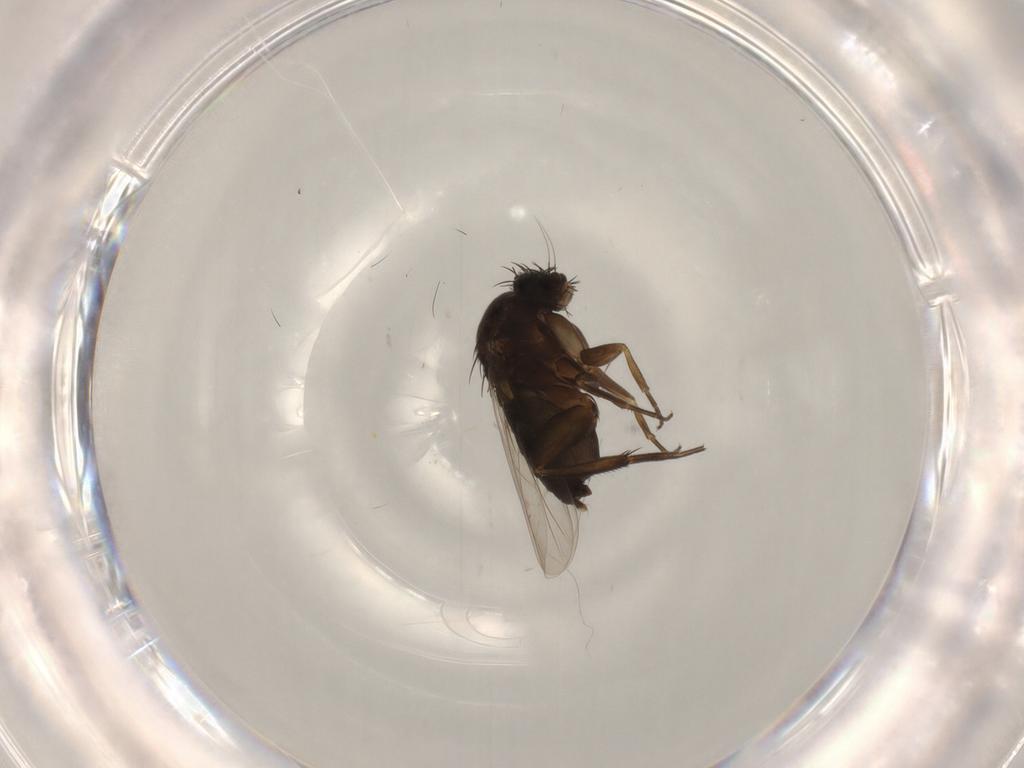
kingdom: Animalia
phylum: Arthropoda
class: Insecta
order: Diptera
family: Phoridae
